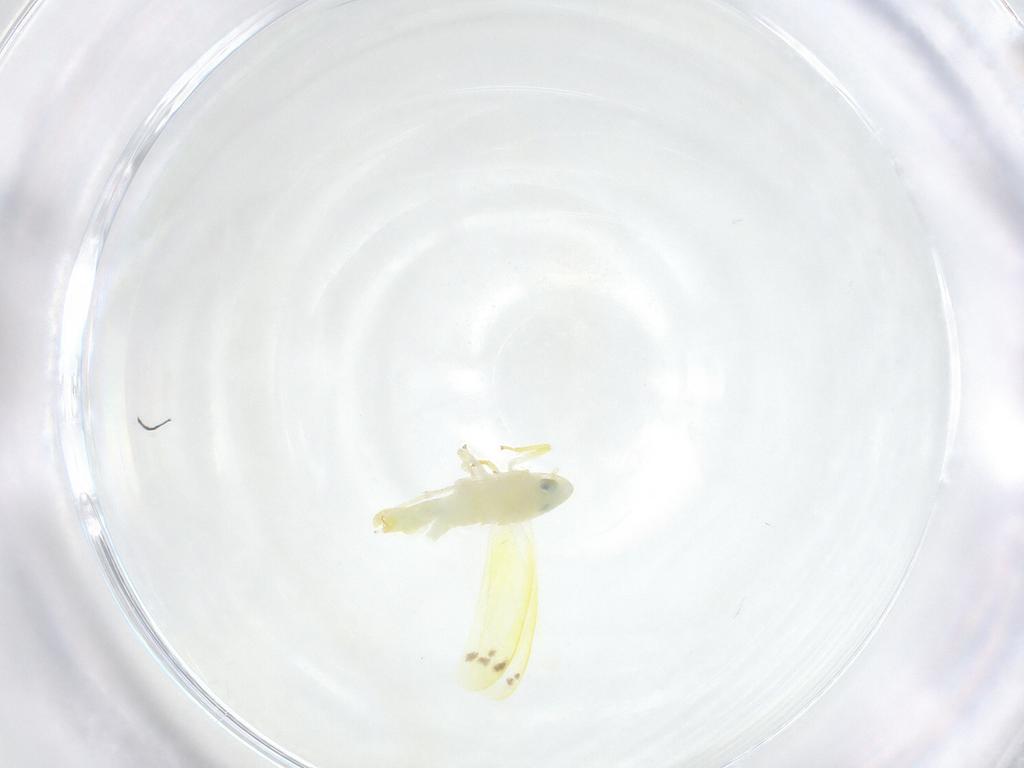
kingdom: Animalia
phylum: Arthropoda
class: Insecta
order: Hemiptera
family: Cicadellidae
